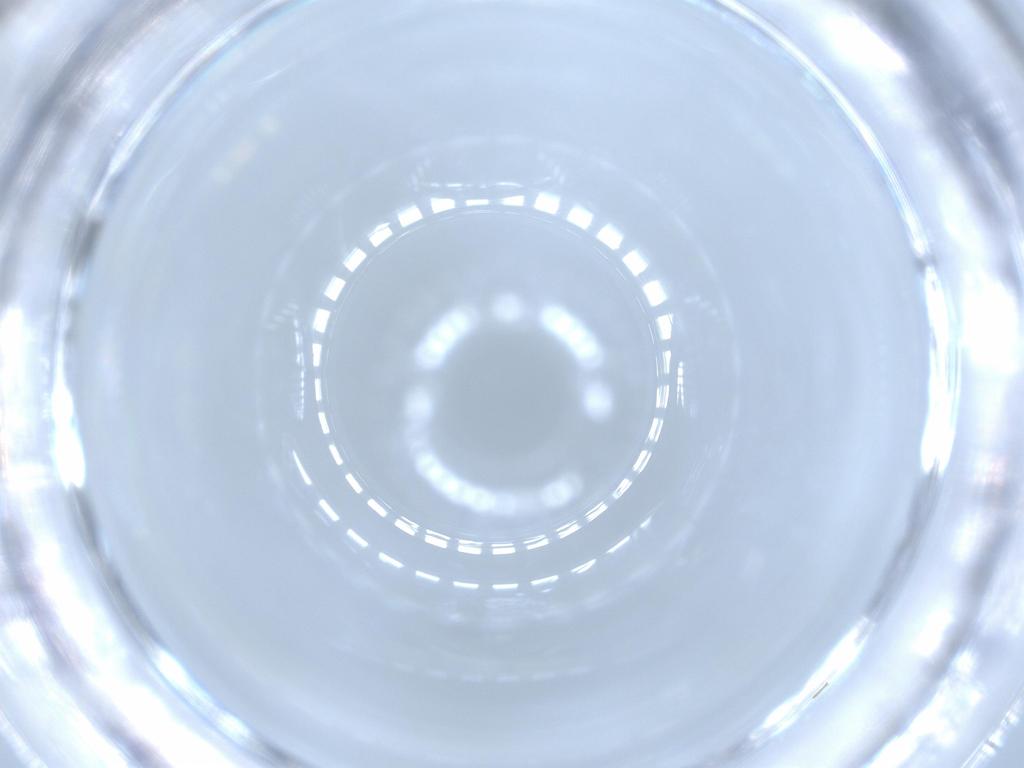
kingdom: Animalia
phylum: Arthropoda
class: Insecta
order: Diptera
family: Cecidomyiidae
